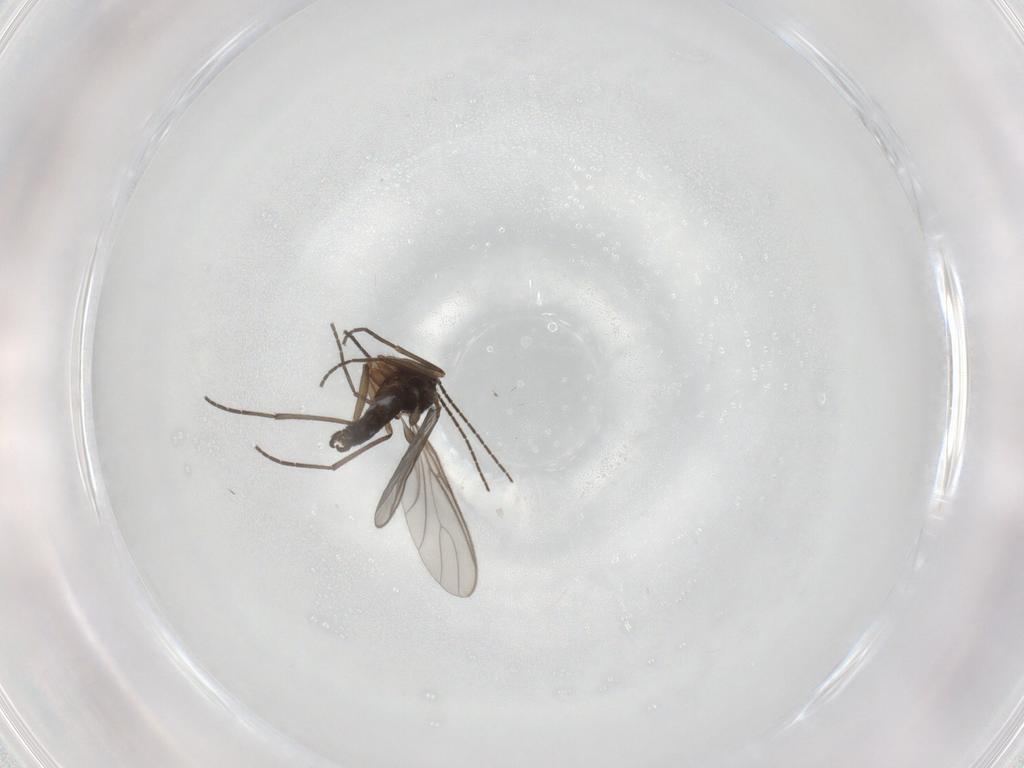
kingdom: Animalia
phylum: Arthropoda
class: Insecta
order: Diptera
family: Sciaridae
